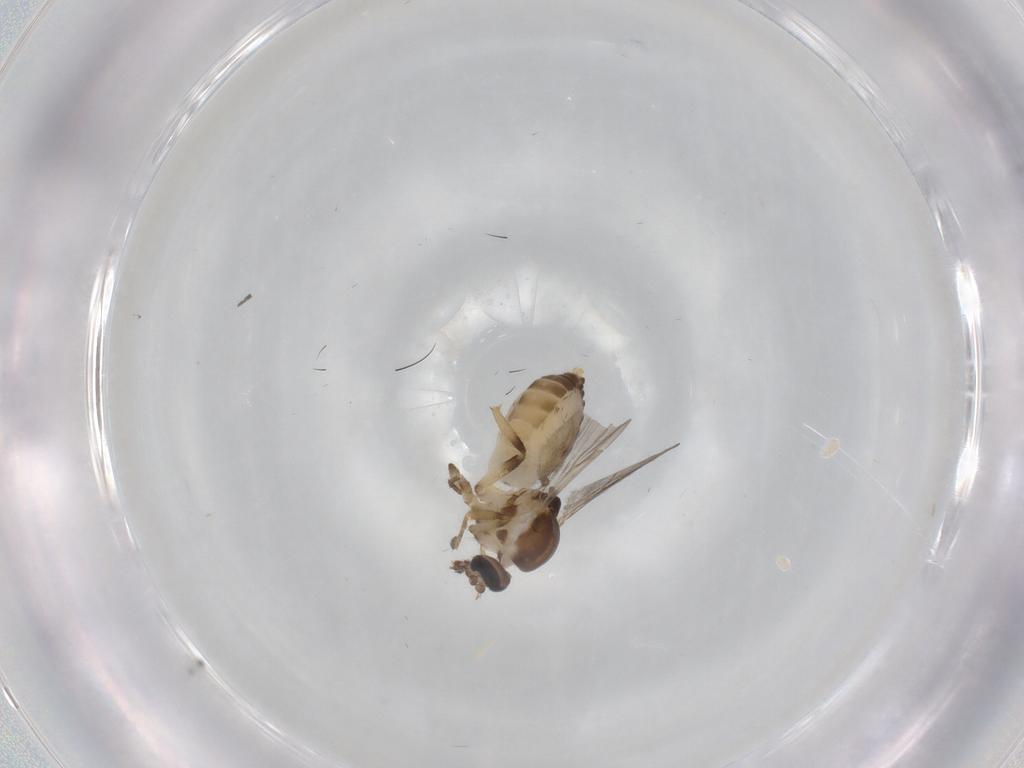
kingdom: Animalia
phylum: Arthropoda
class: Insecta
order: Diptera
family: Ceratopogonidae
